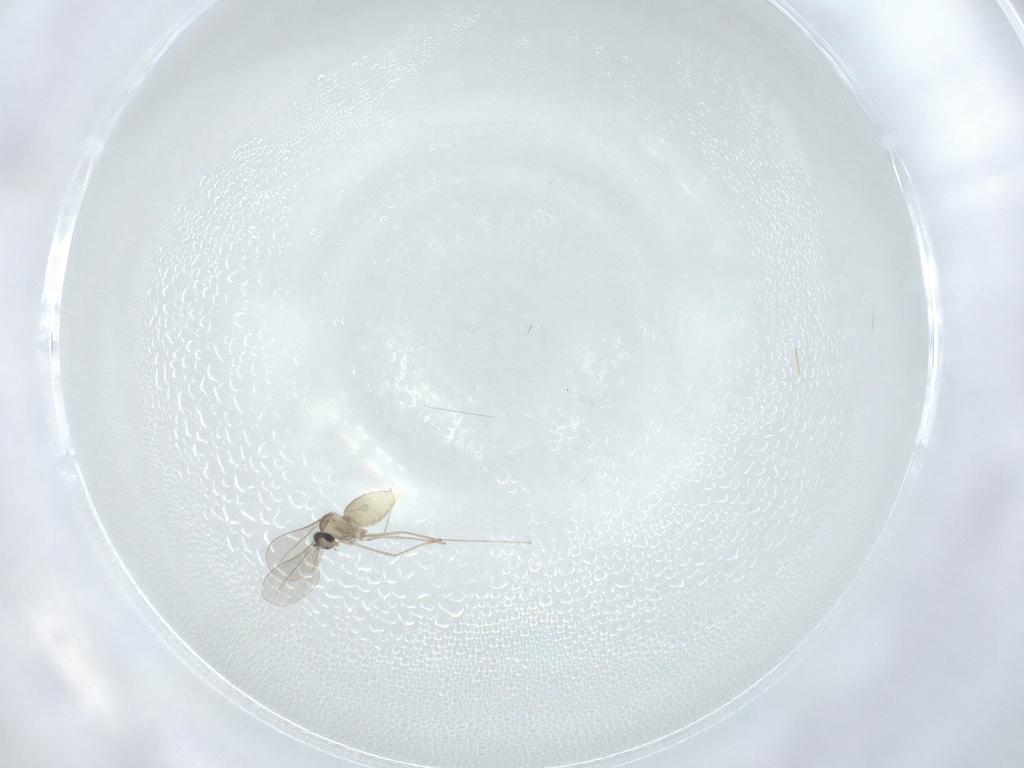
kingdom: Animalia
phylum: Arthropoda
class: Insecta
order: Diptera
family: Cecidomyiidae
